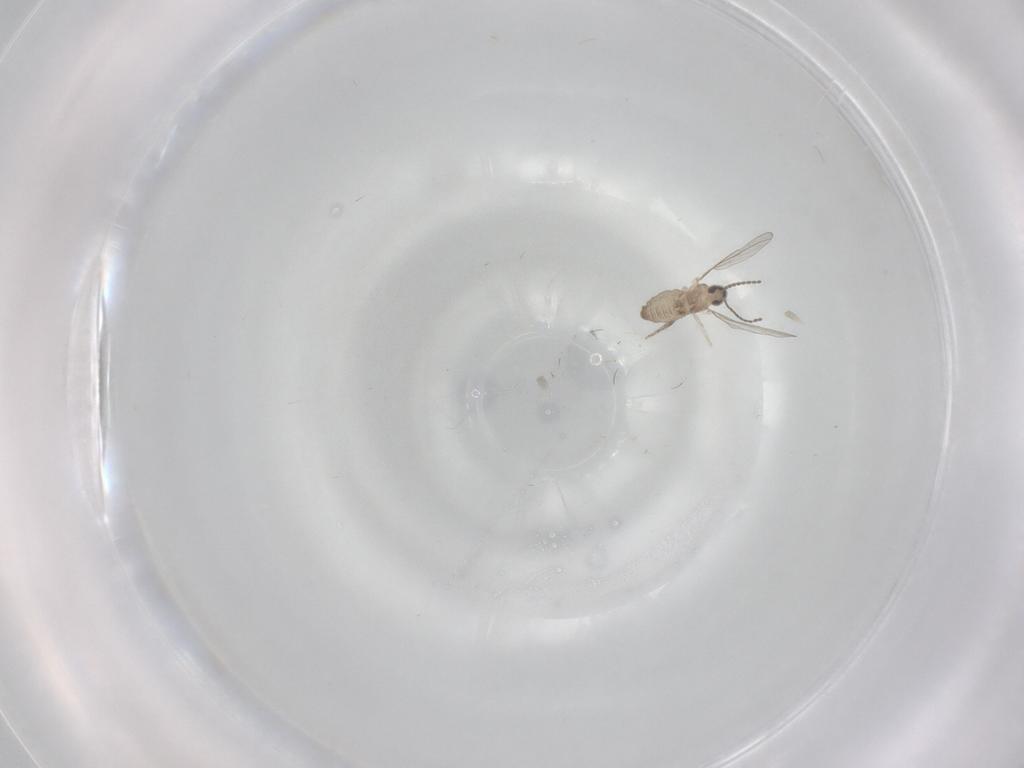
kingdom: Animalia
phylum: Arthropoda
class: Insecta
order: Diptera
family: Cecidomyiidae
